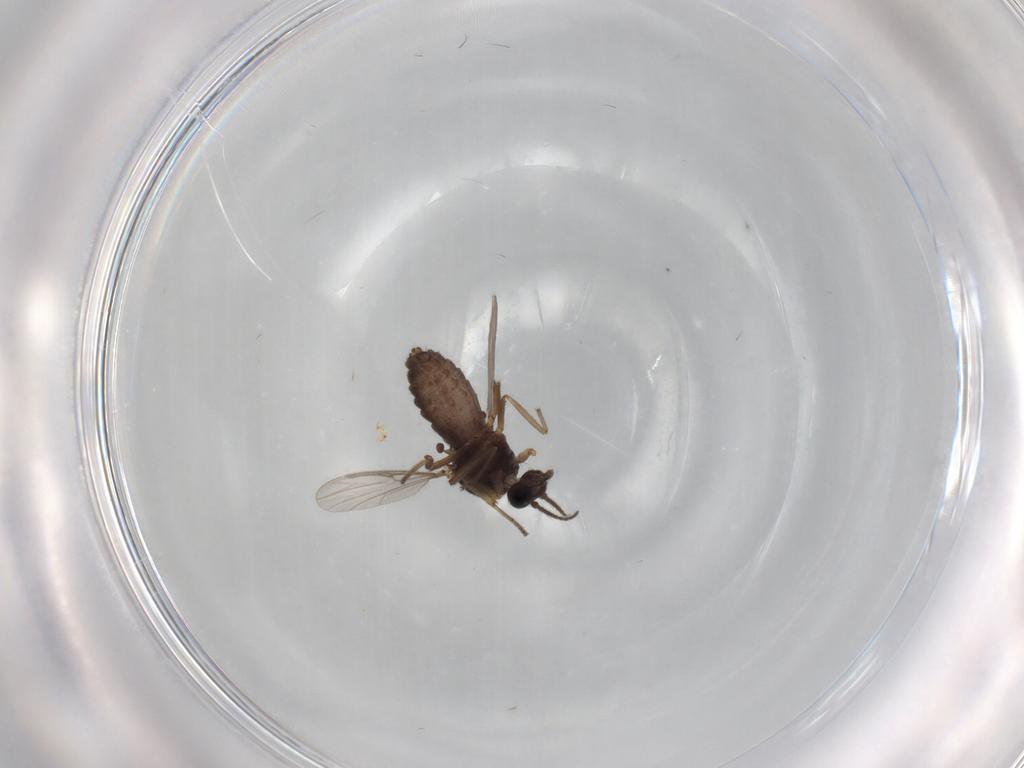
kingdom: Animalia
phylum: Arthropoda
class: Insecta
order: Diptera
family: Ceratopogonidae
